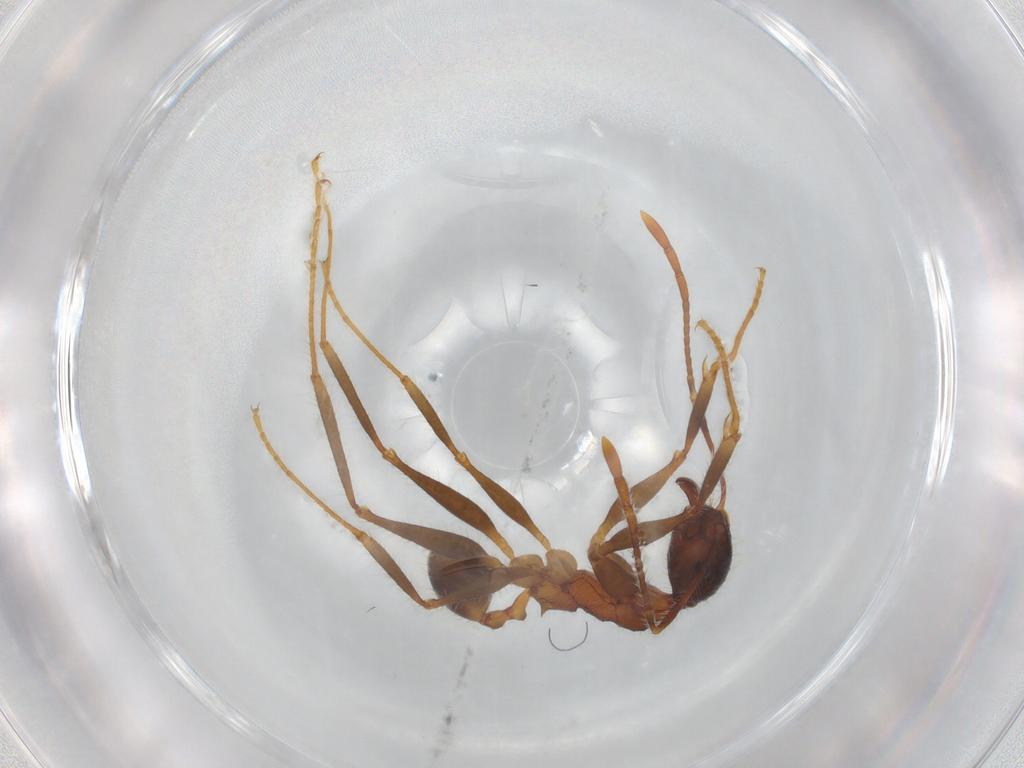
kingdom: Animalia
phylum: Arthropoda
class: Insecta
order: Hymenoptera
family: Formicidae
